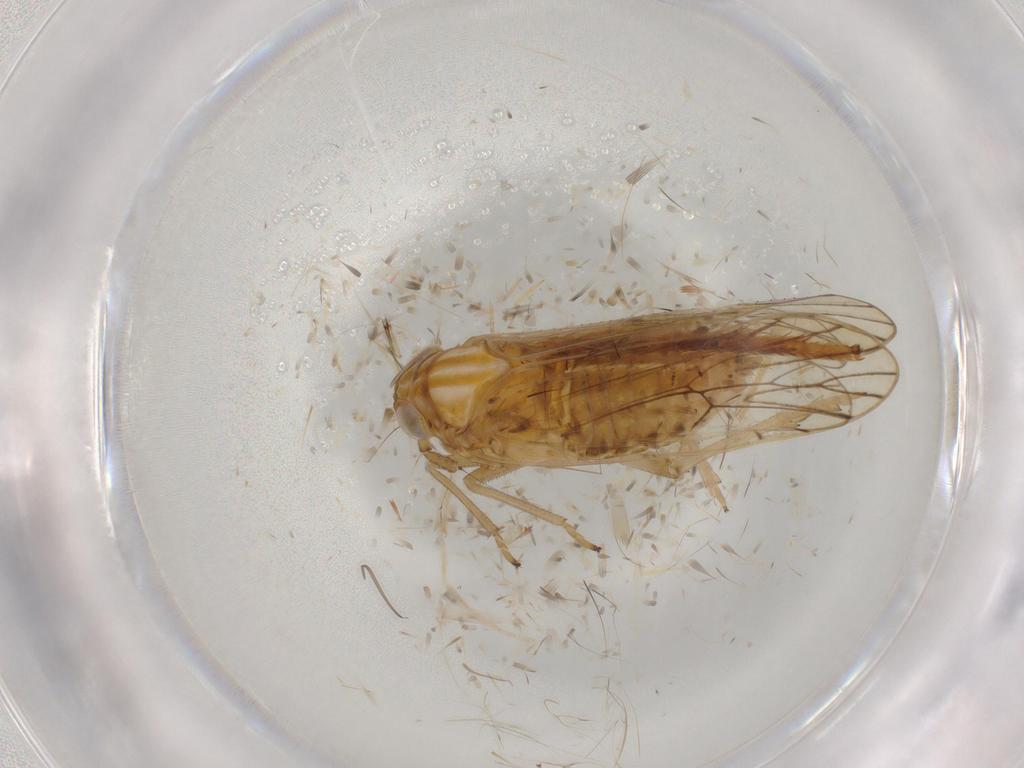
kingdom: Animalia
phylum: Arthropoda
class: Insecta
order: Hemiptera
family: Delphacidae
